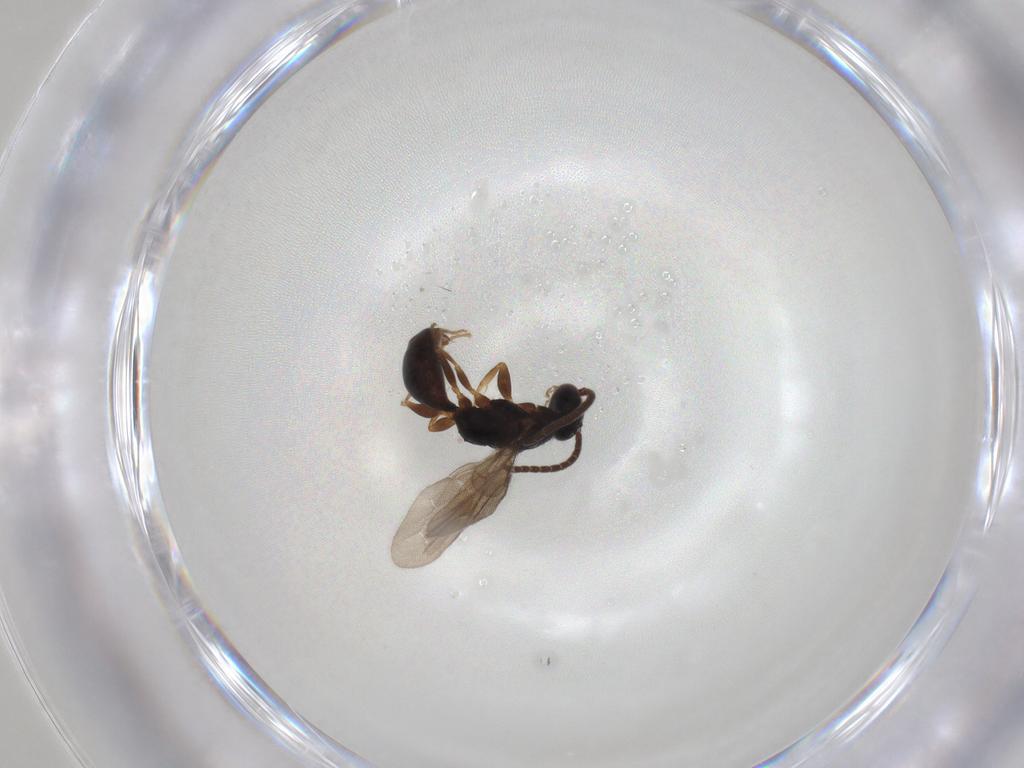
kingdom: Animalia
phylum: Arthropoda
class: Insecta
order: Hymenoptera
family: Bethylidae
